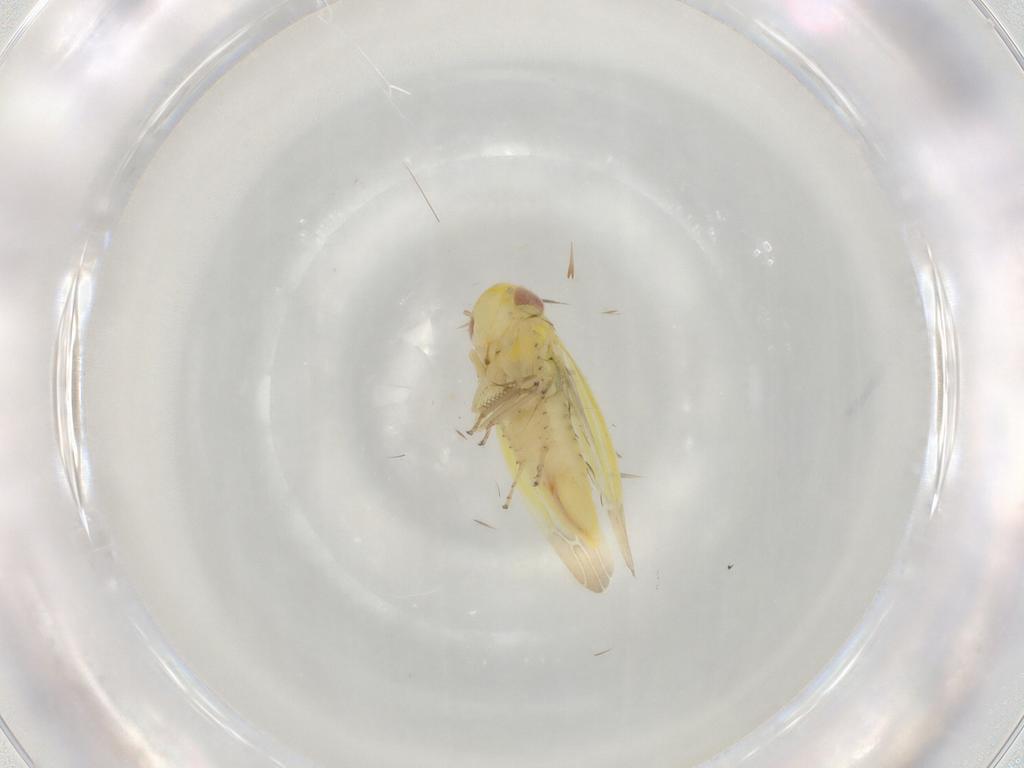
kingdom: Animalia
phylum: Arthropoda
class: Insecta
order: Hemiptera
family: Cicadellidae
